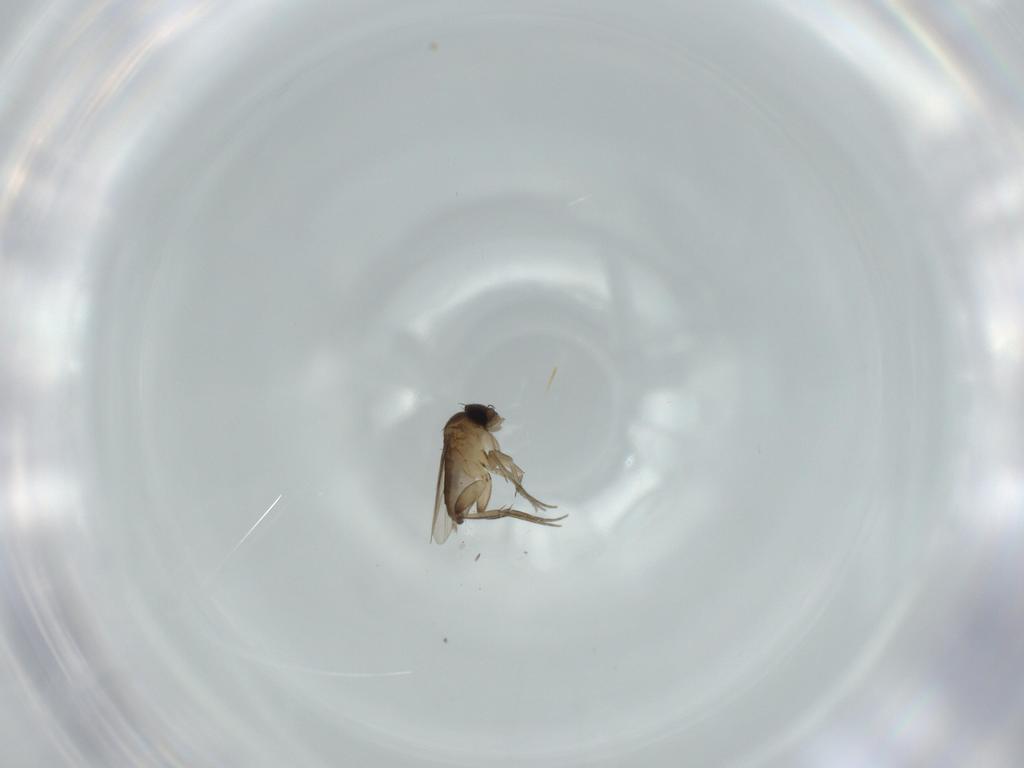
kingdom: Animalia
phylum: Arthropoda
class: Insecta
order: Diptera
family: Phoridae
